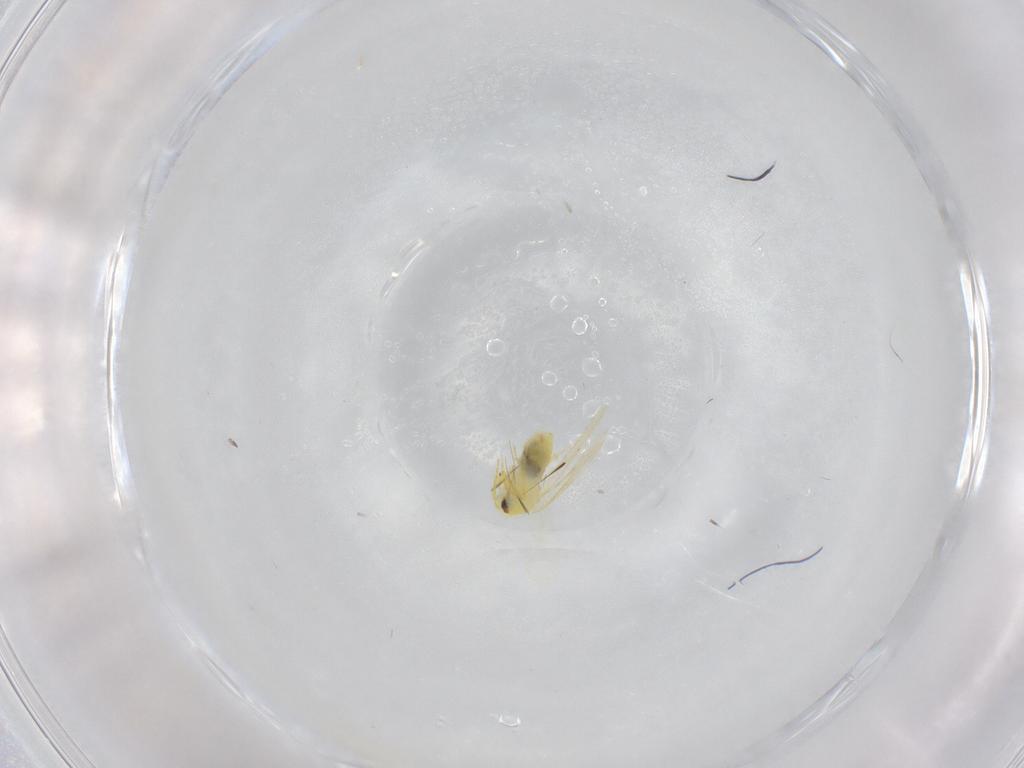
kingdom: Animalia
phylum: Arthropoda
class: Insecta
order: Hemiptera
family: Aleyrodidae
